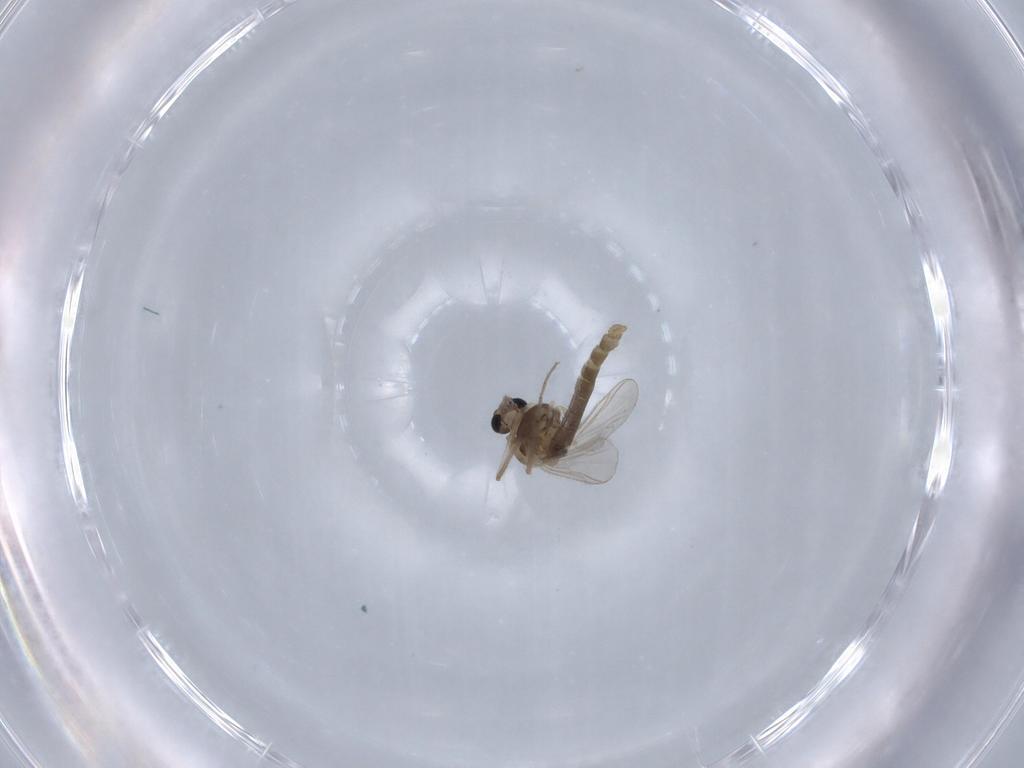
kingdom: Animalia
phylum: Arthropoda
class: Insecta
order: Diptera
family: Chironomidae
